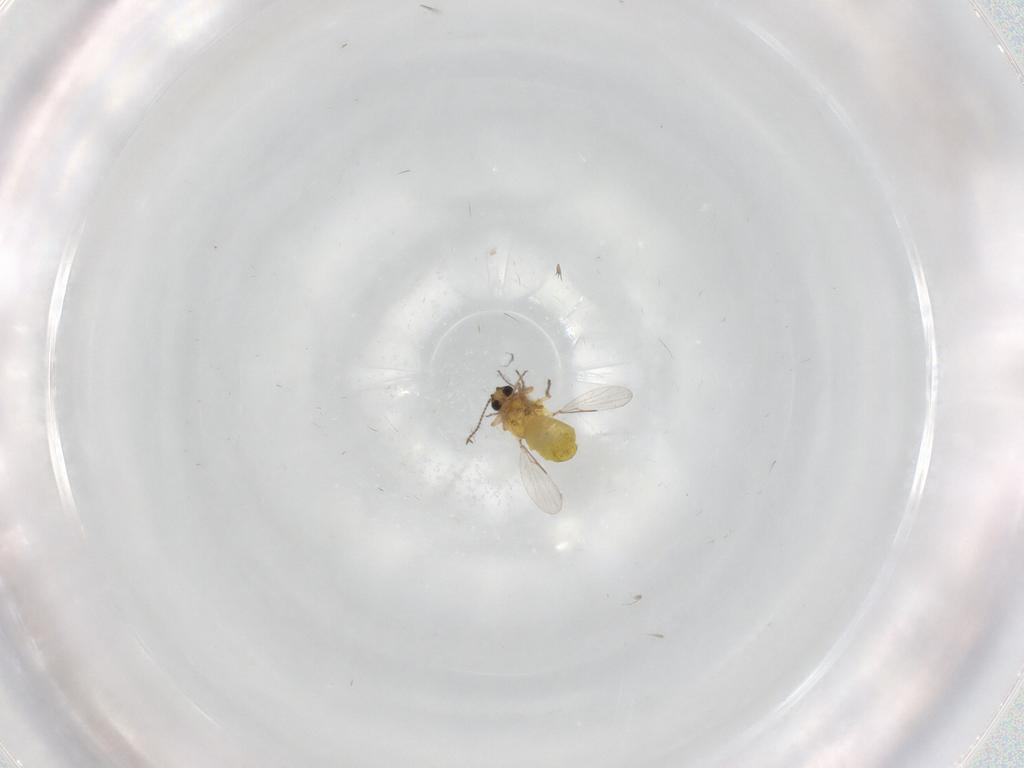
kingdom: Animalia
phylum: Arthropoda
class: Insecta
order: Diptera
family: Ceratopogonidae
